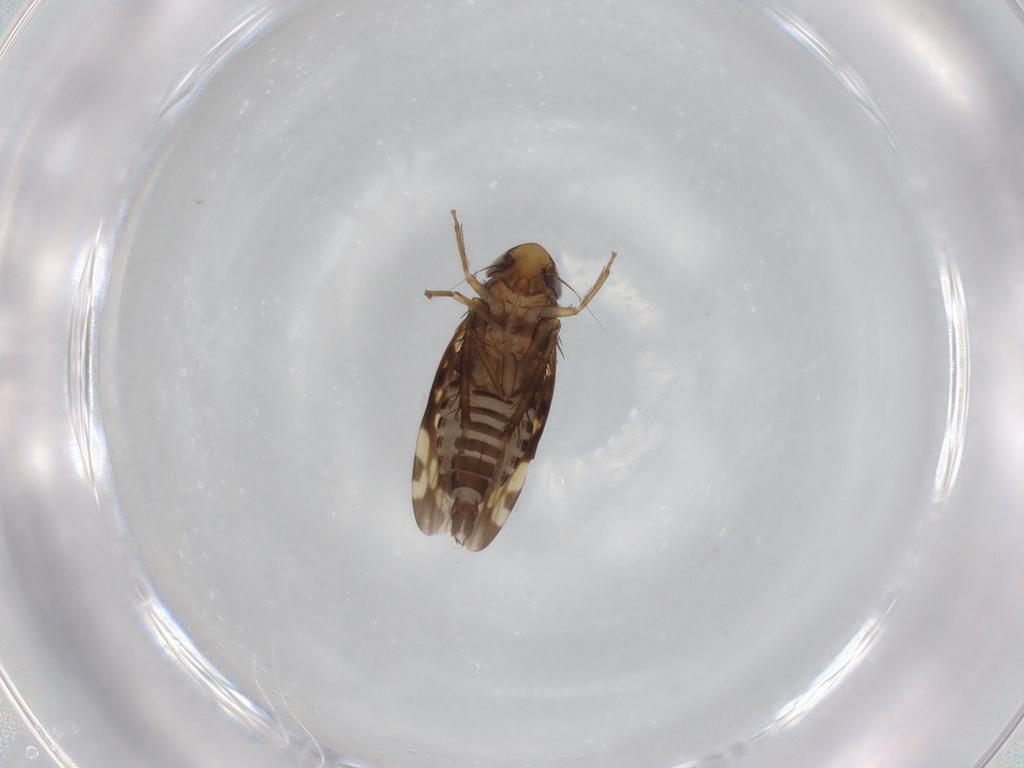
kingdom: Animalia
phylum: Arthropoda
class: Insecta
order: Hemiptera
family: Cicadellidae
